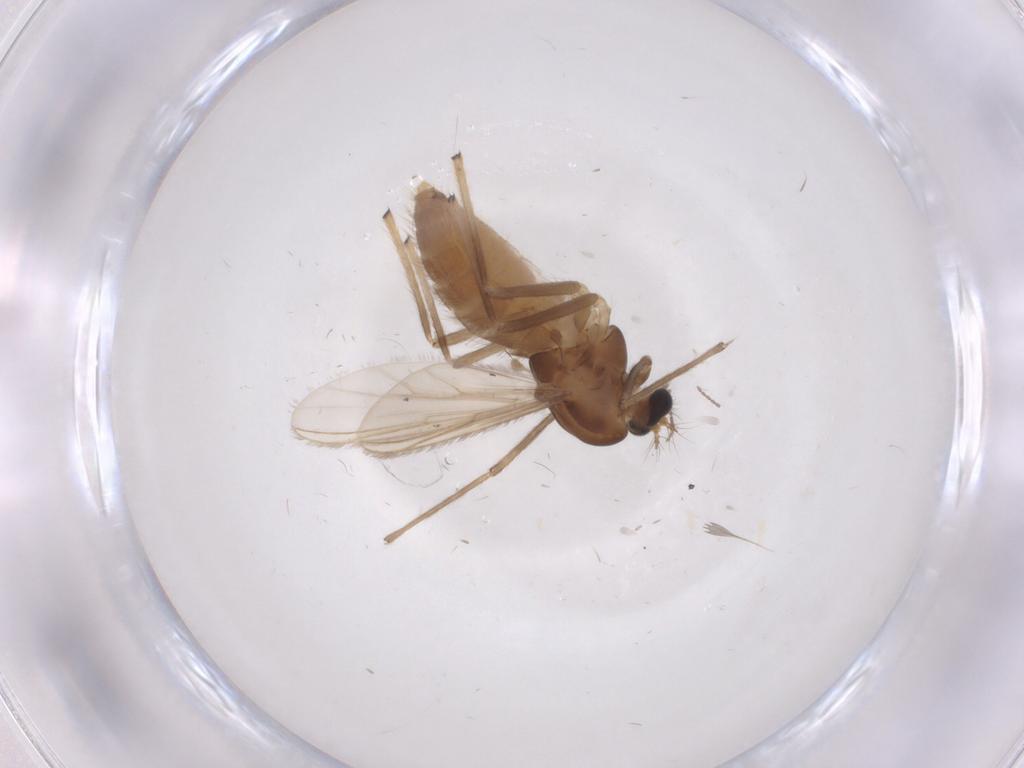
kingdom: Animalia
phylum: Arthropoda
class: Insecta
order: Diptera
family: Chironomidae
